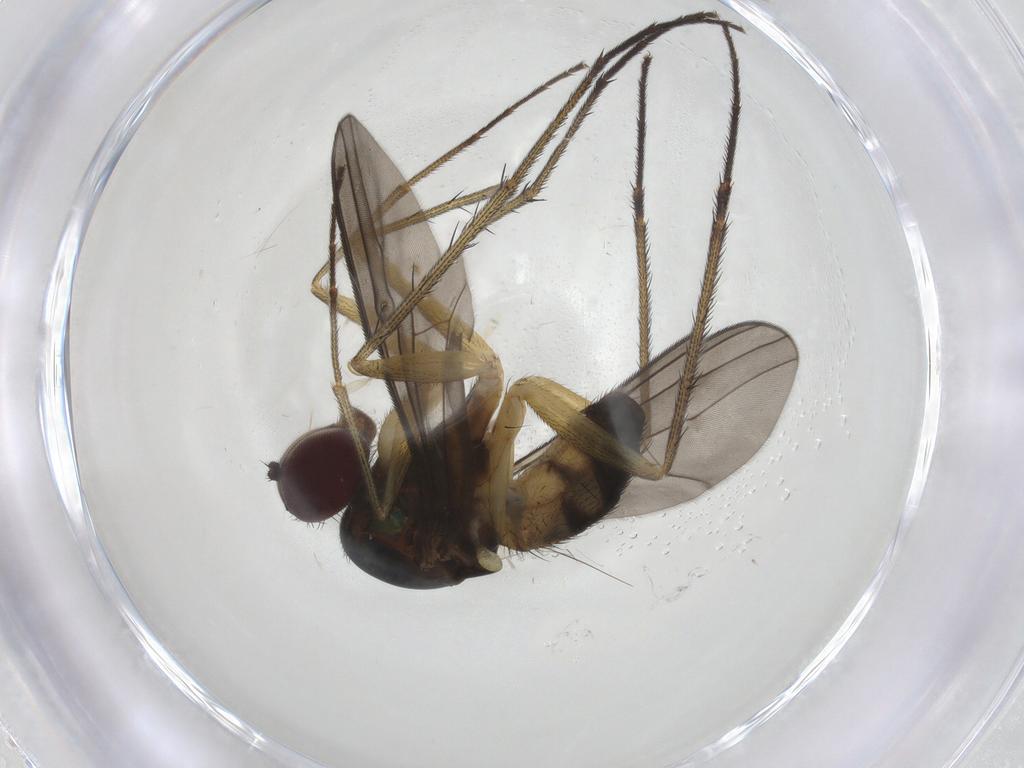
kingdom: Animalia
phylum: Arthropoda
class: Insecta
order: Diptera
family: Dolichopodidae
